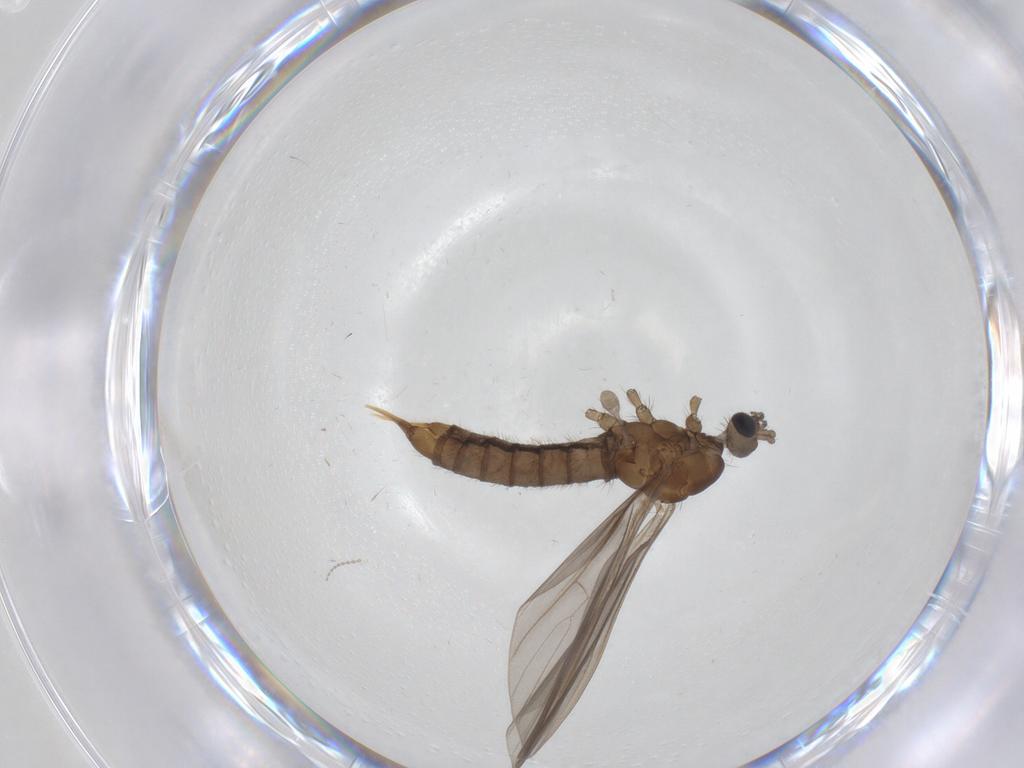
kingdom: Animalia
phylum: Arthropoda
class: Insecta
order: Diptera
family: Limoniidae
